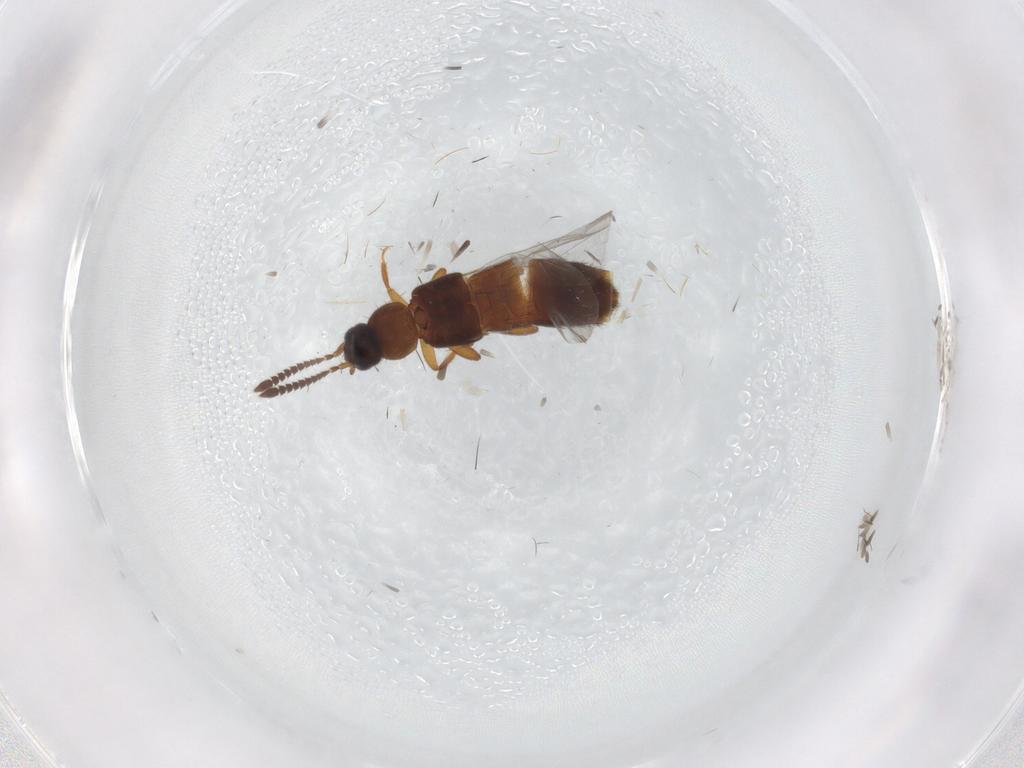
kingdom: Animalia
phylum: Arthropoda
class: Insecta
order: Coleoptera
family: Staphylinidae
